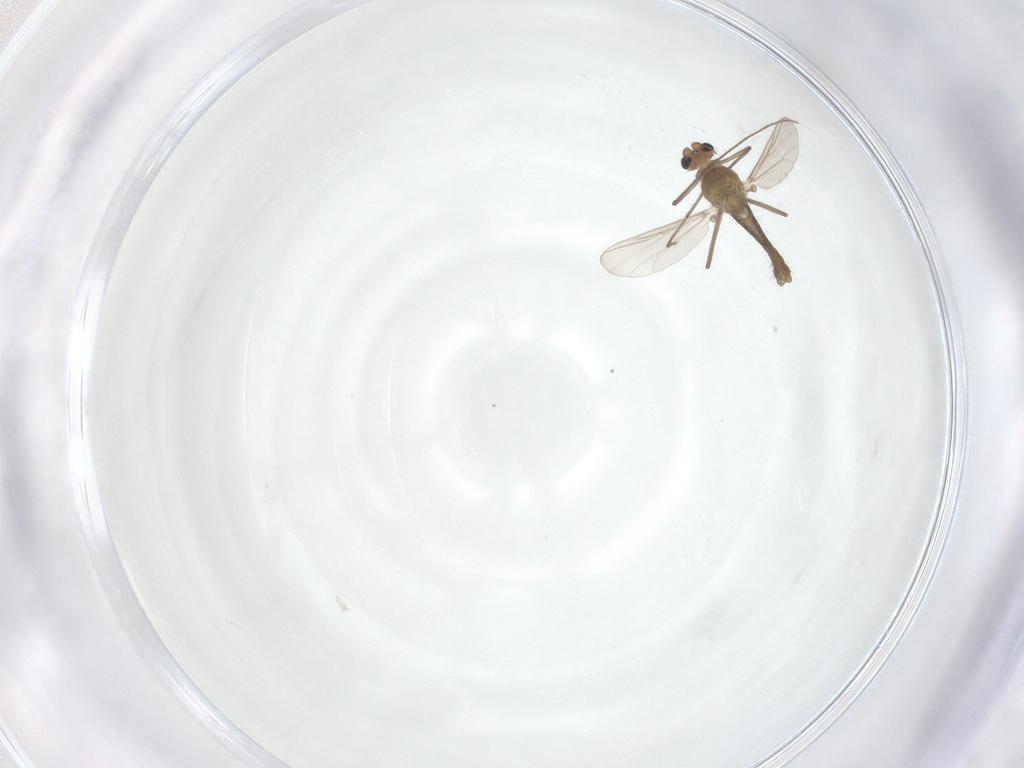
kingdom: Animalia
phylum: Arthropoda
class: Insecta
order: Diptera
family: Chironomidae
